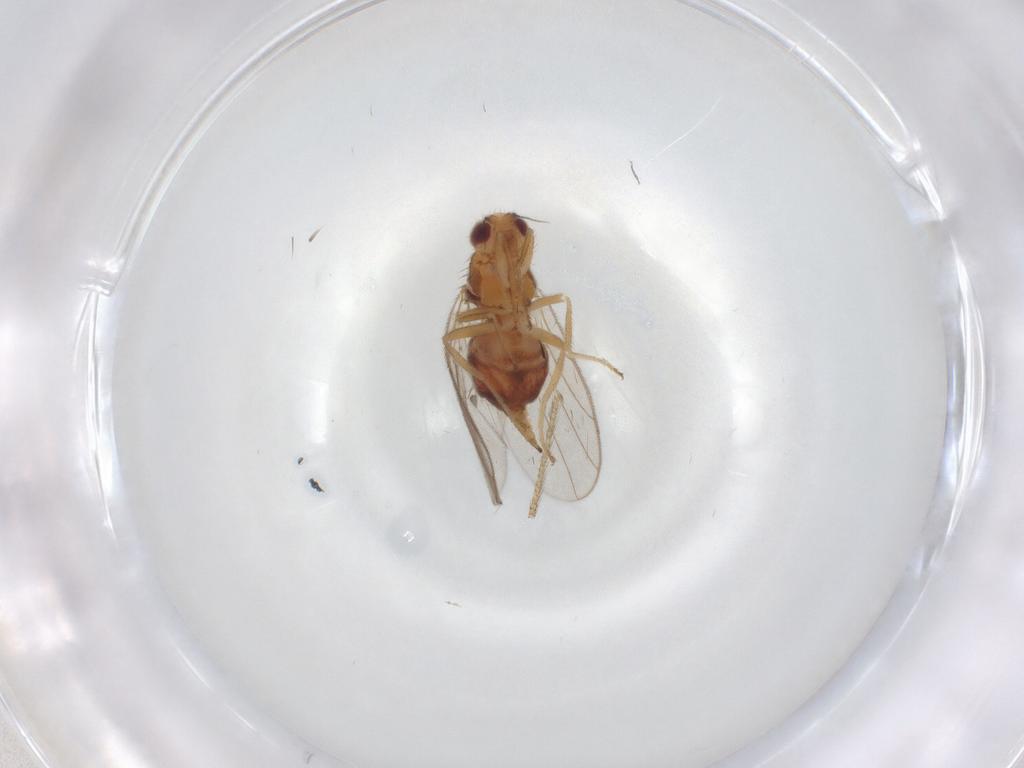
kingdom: Animalia
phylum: Arthropoda
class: Insecta
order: Diptera
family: Chloropidae
